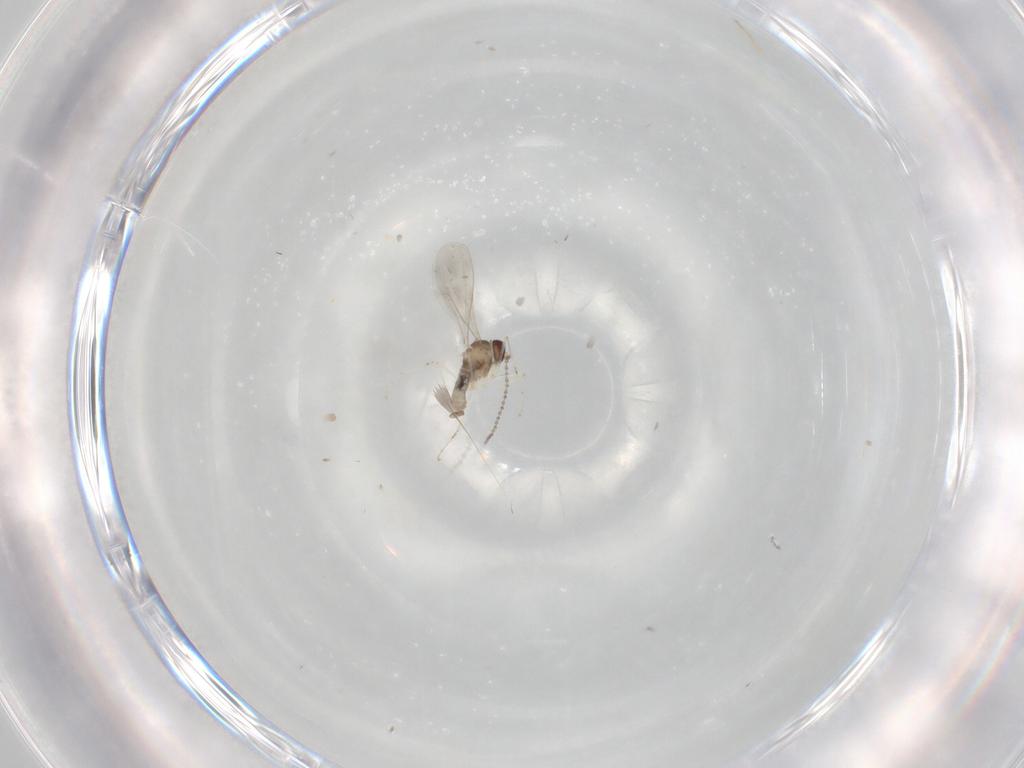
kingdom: Animalia
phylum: Arthropoda
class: Insecta
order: Diptera
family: Cecidomyiidae
